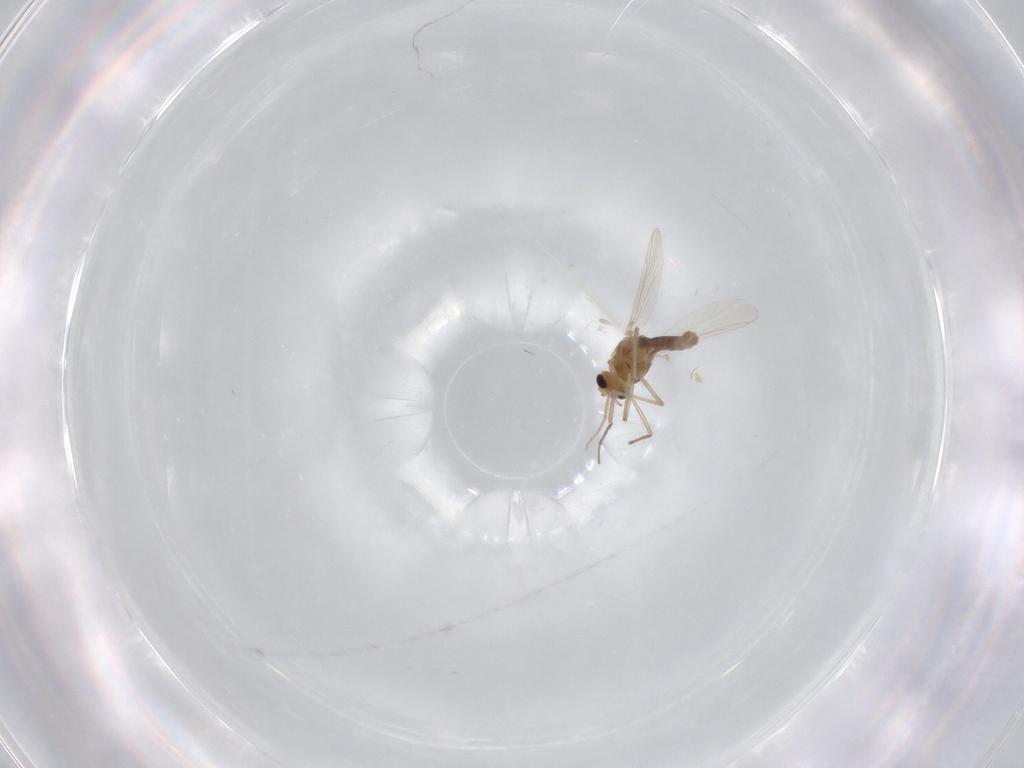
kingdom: Animalia
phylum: Arthropoda
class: Insecta
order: Diptera
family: Chironomidae
